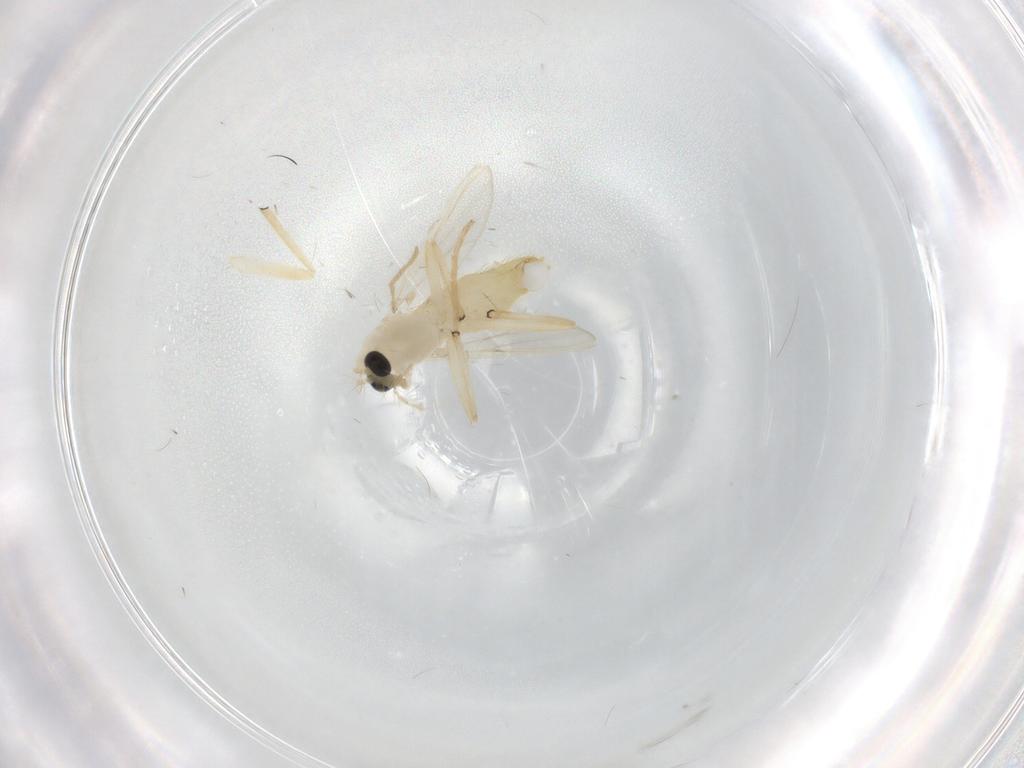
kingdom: Animalia
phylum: Arthropoda
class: Insecta
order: Diptera
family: Chironomidae
